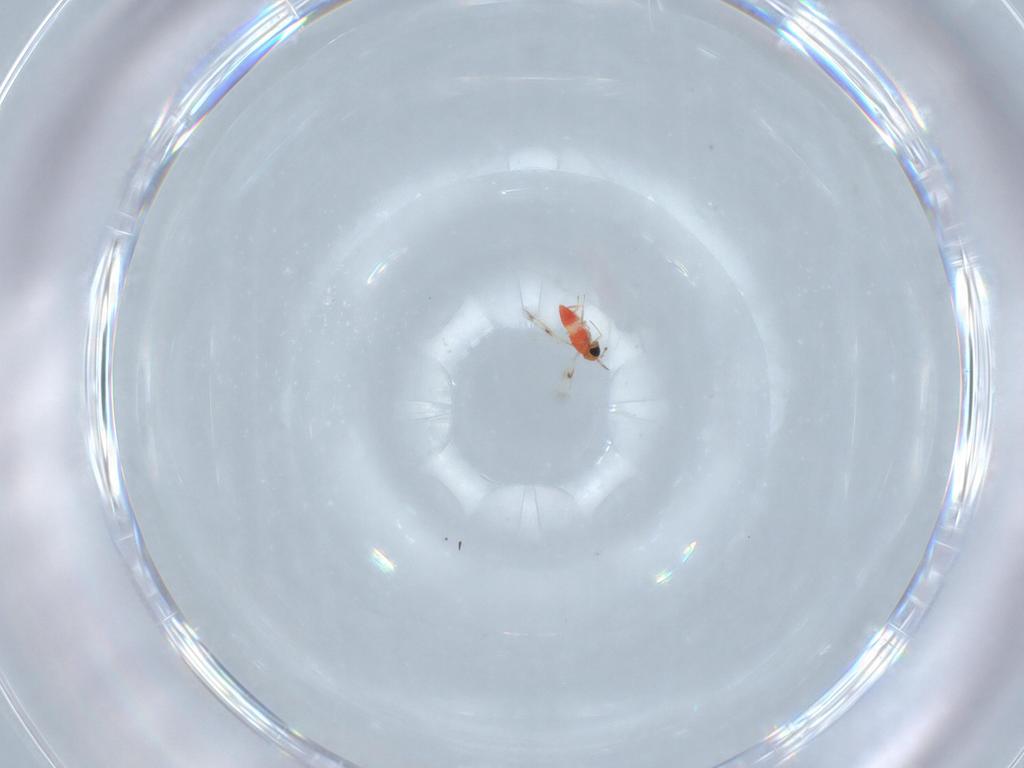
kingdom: Animalia
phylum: Arthropoda
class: Insecta
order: Hymenoptera
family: Trichogrammatidae
